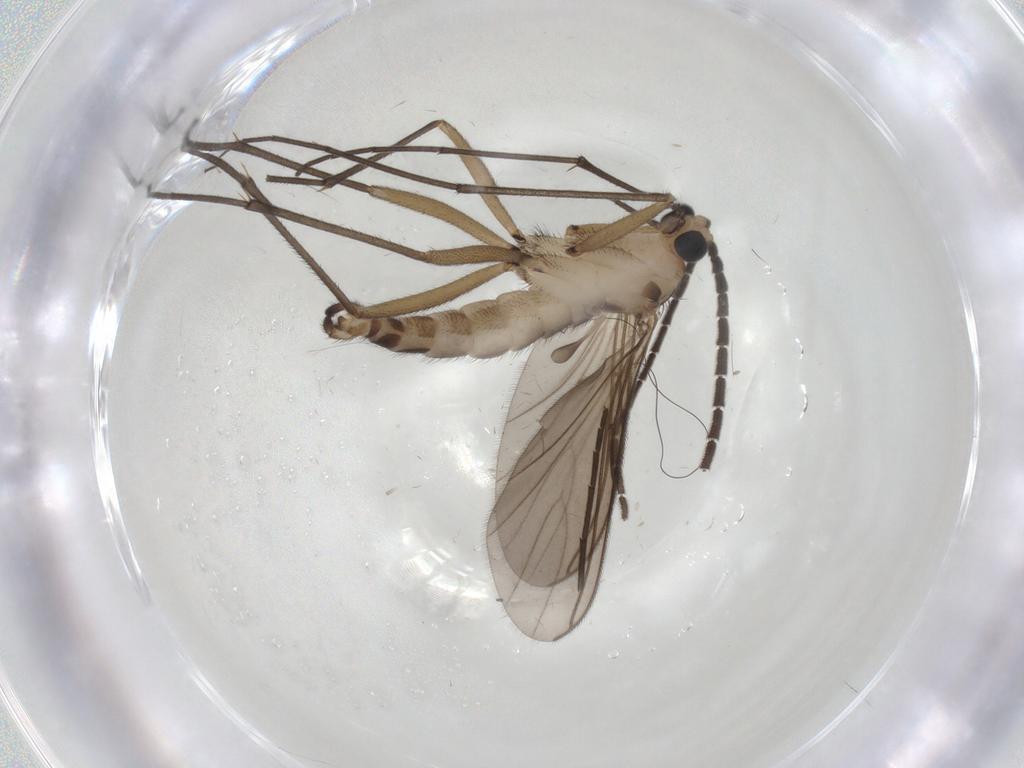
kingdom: Animalia
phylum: Arthropoda
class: Insecta
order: Diptera
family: Sciaridae
